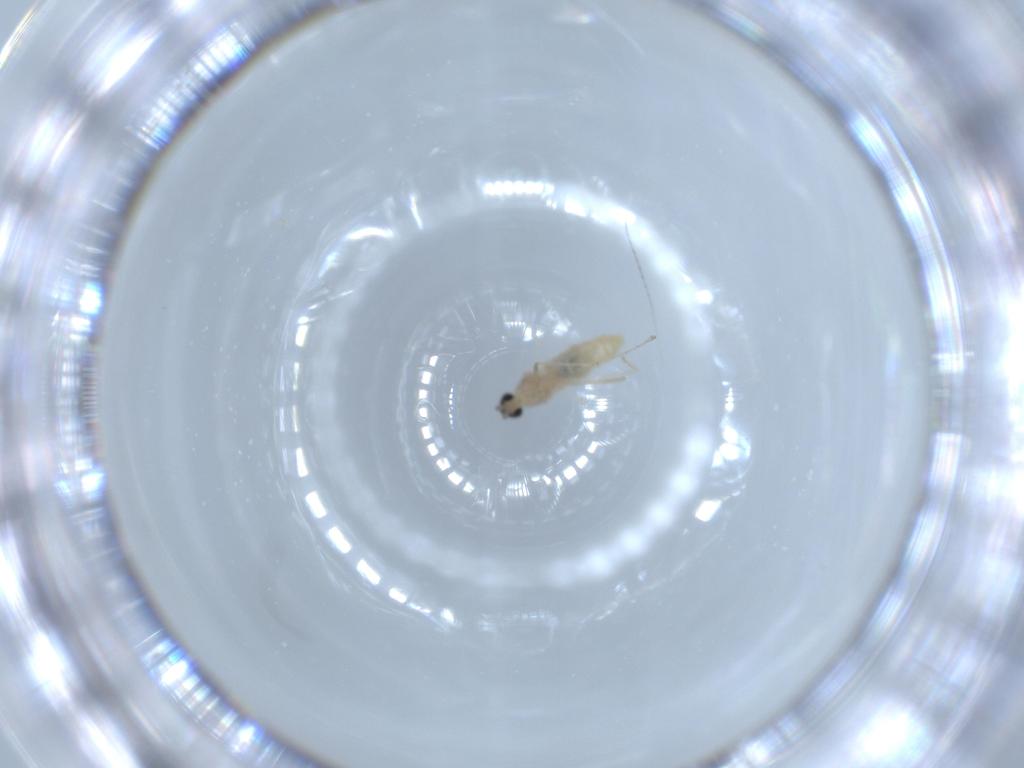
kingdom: Animalia
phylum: Arthropoda
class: Insecta
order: Diptera
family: Cecidomyiidae
